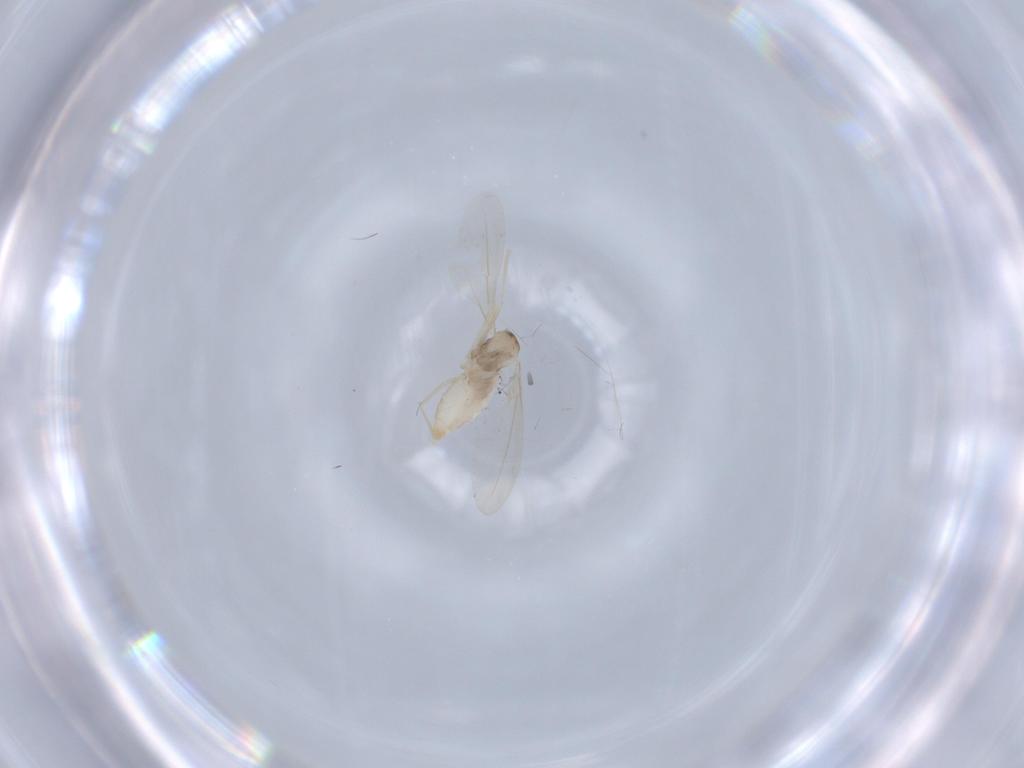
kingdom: Animalia
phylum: Arthropoda
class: Insecta
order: Diptera
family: Cecidomyiidae
